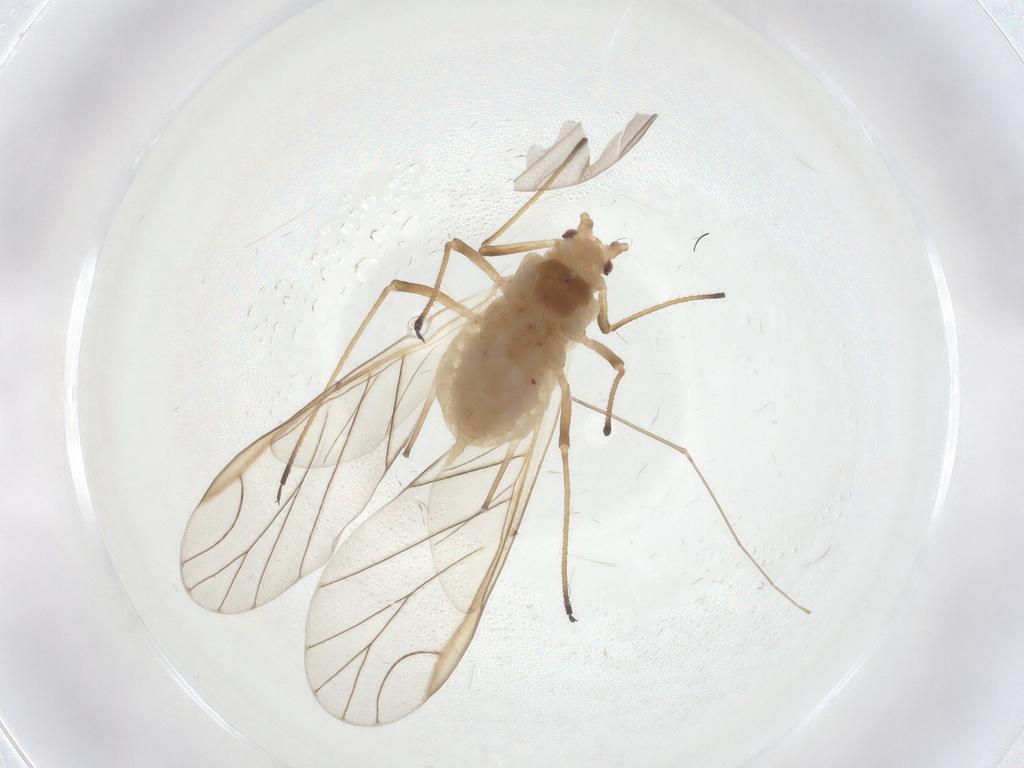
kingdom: Animalia
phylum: Arthropoda
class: Insecta
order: Hemiptera
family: Aphididae
